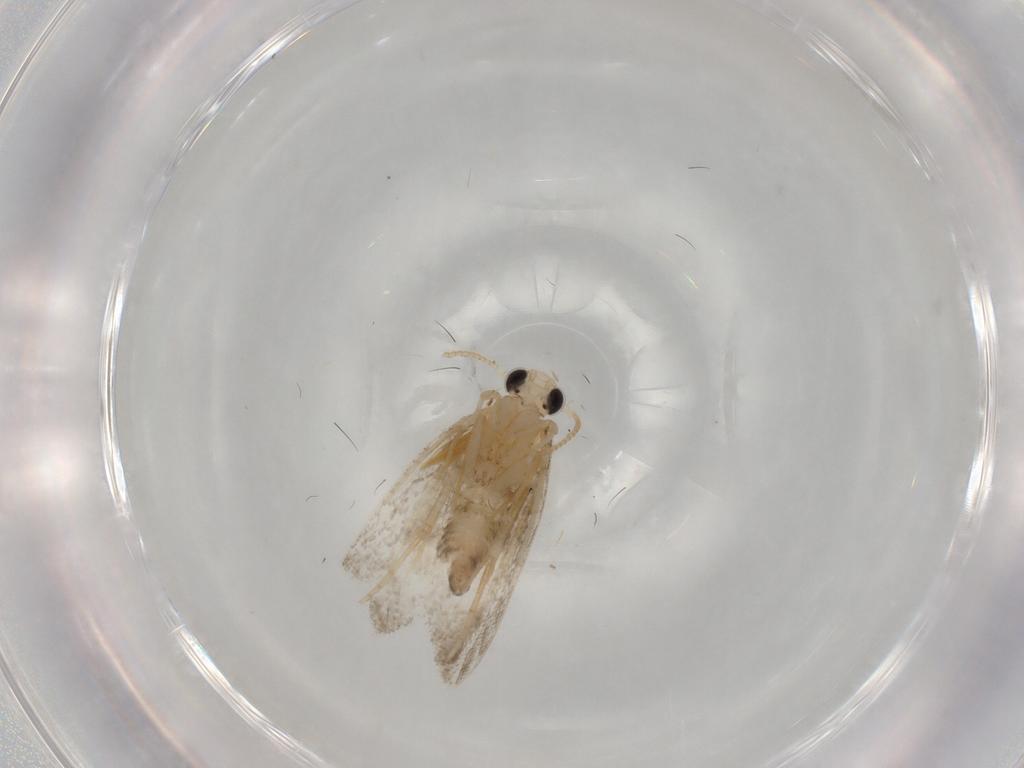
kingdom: Animalia
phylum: Arthropoda
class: Insecta
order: Lepidoptera
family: Psychidae
